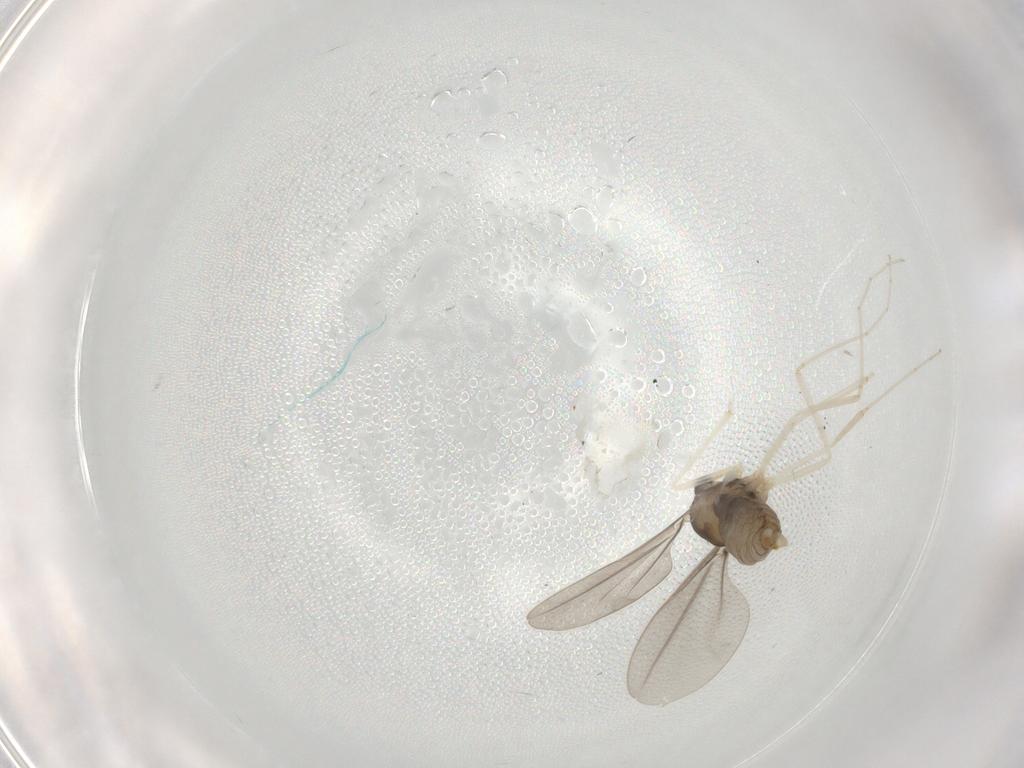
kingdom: Animalia
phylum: Arthropoda
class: Insecta
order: Diptera
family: Cecidomyiidae
